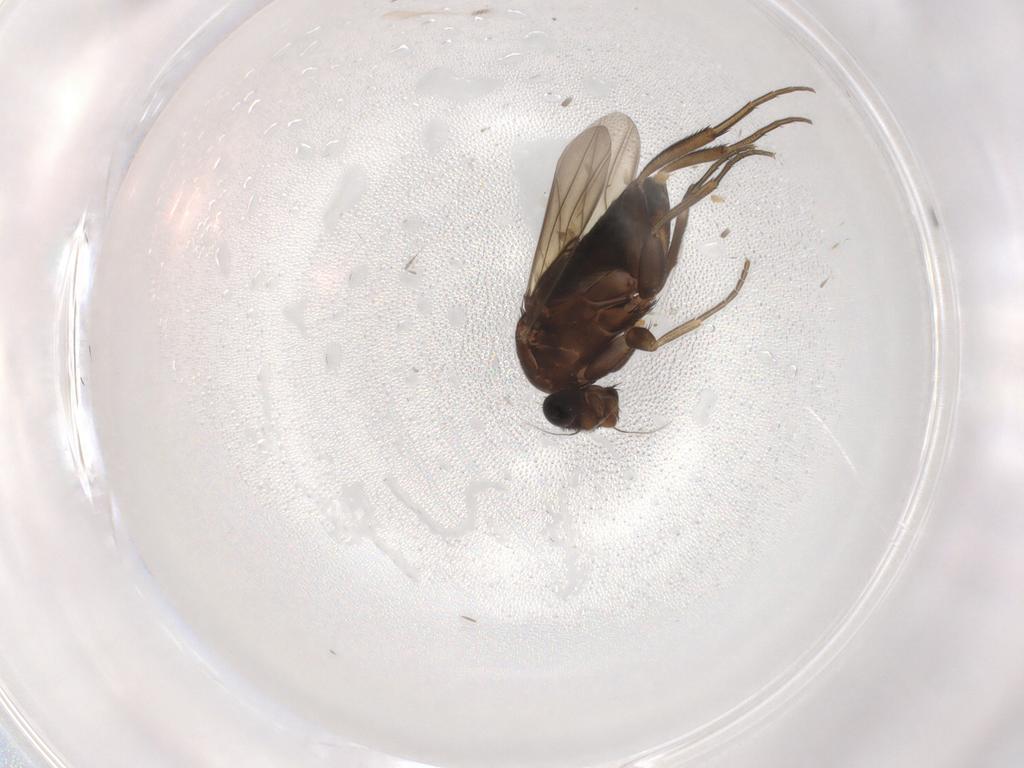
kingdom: Animalia
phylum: Arthropoda
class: Insecta
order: Diptera
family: Phoridae
